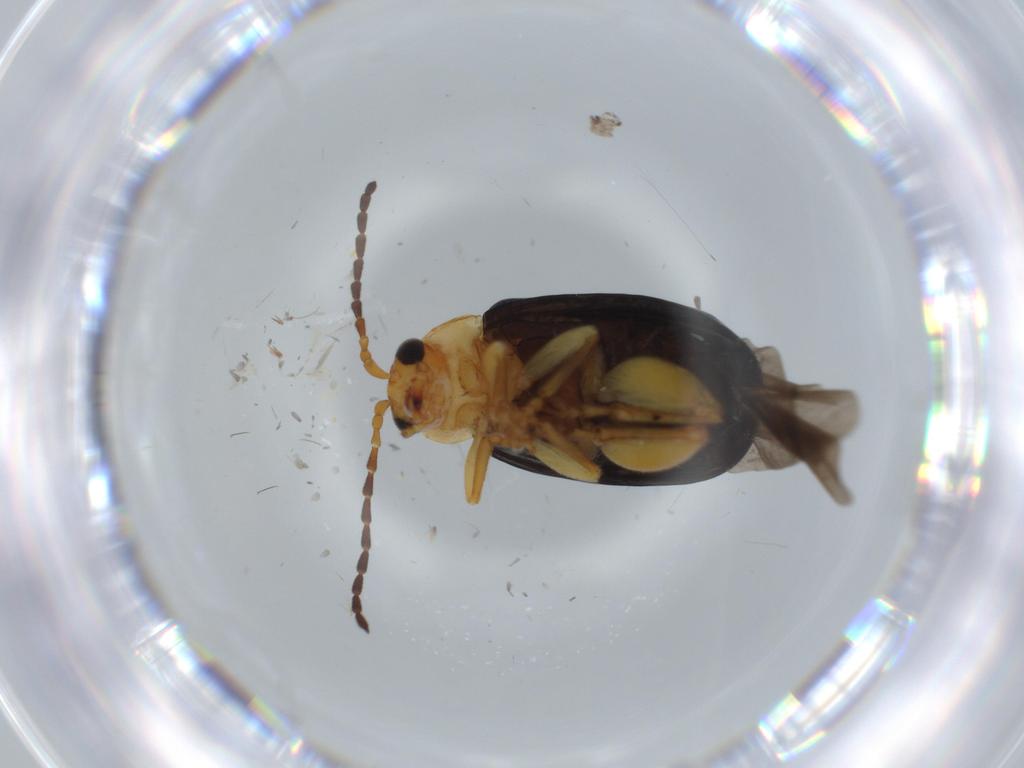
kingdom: Animalia
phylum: Arthropoda
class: Insecta
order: Coleoptera
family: Chrysomelidae
